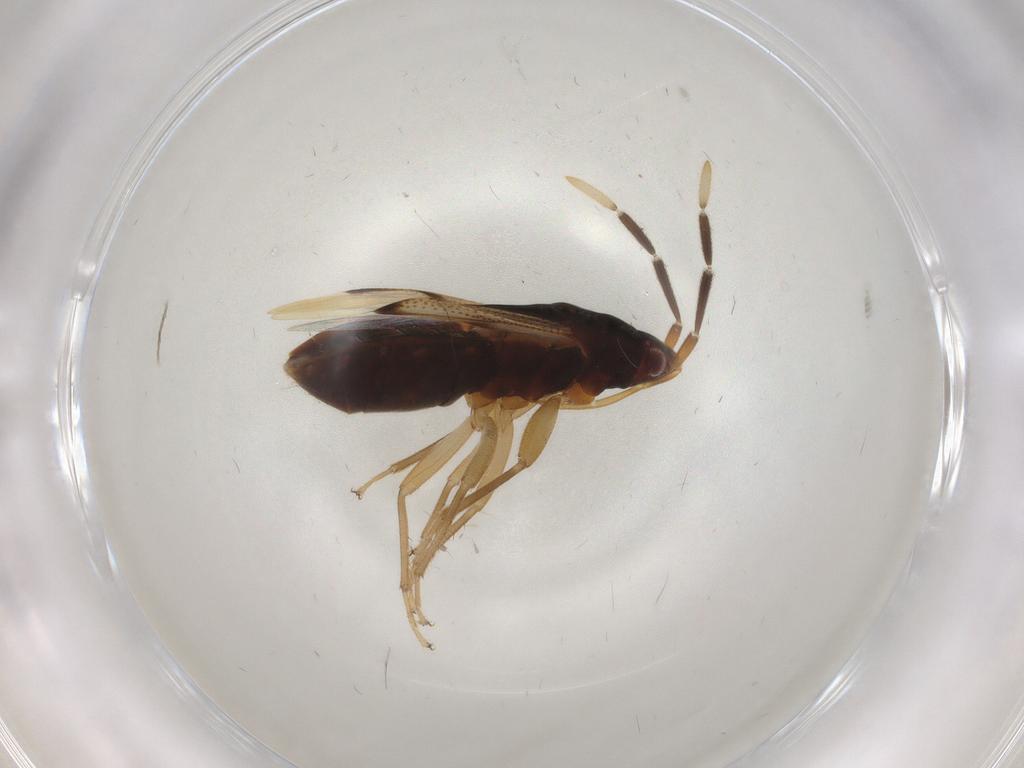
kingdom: Animalia
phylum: Arthropoda
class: Insecta
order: Hemiptera
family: Rhyparochromidae
